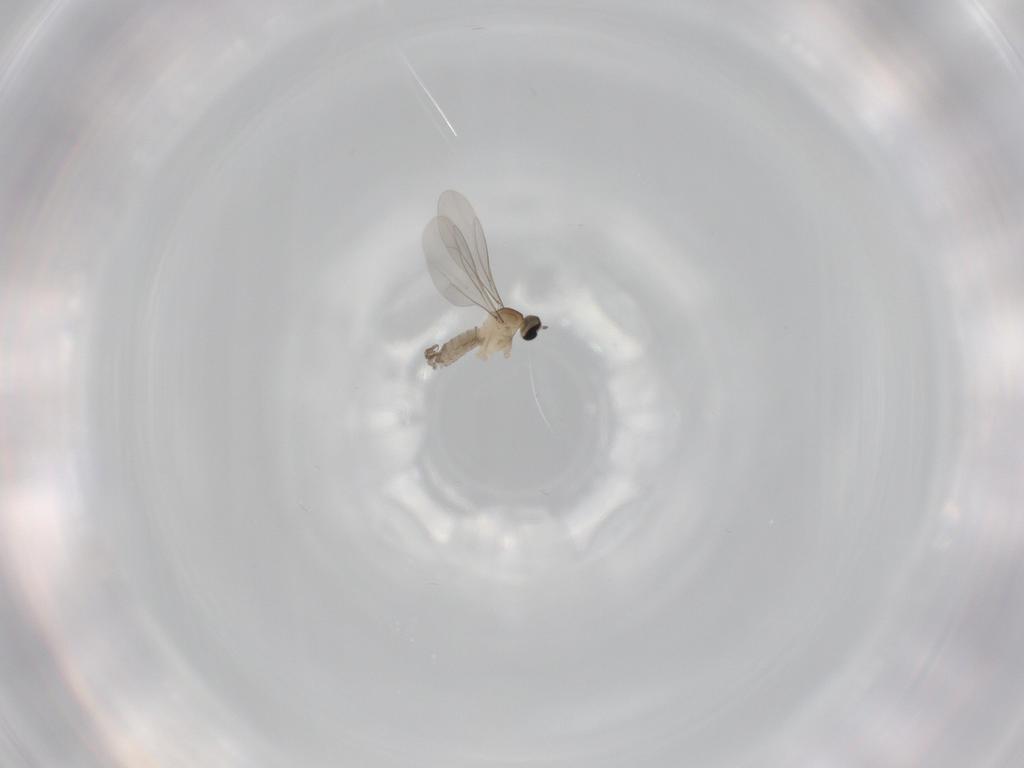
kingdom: Animalia
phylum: Arthropoda
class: Insecta
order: Diptera
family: Cecidomyiidae
